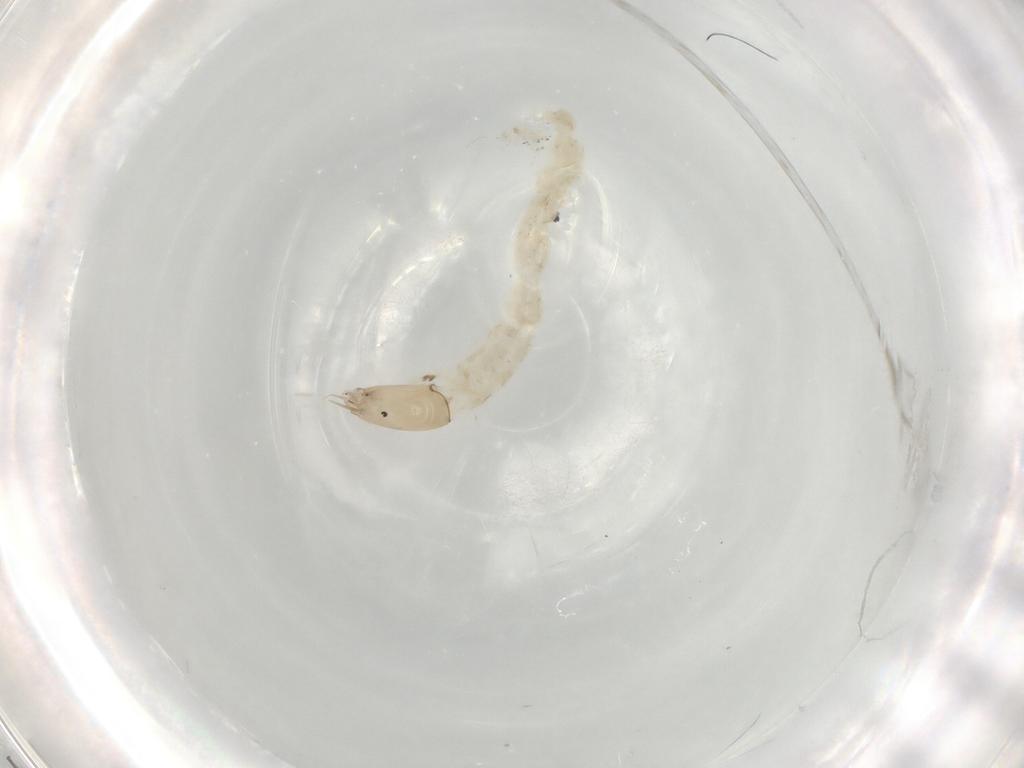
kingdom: Animalia
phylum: Arthropoda
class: Insecta
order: Diptera
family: Chironomidae
